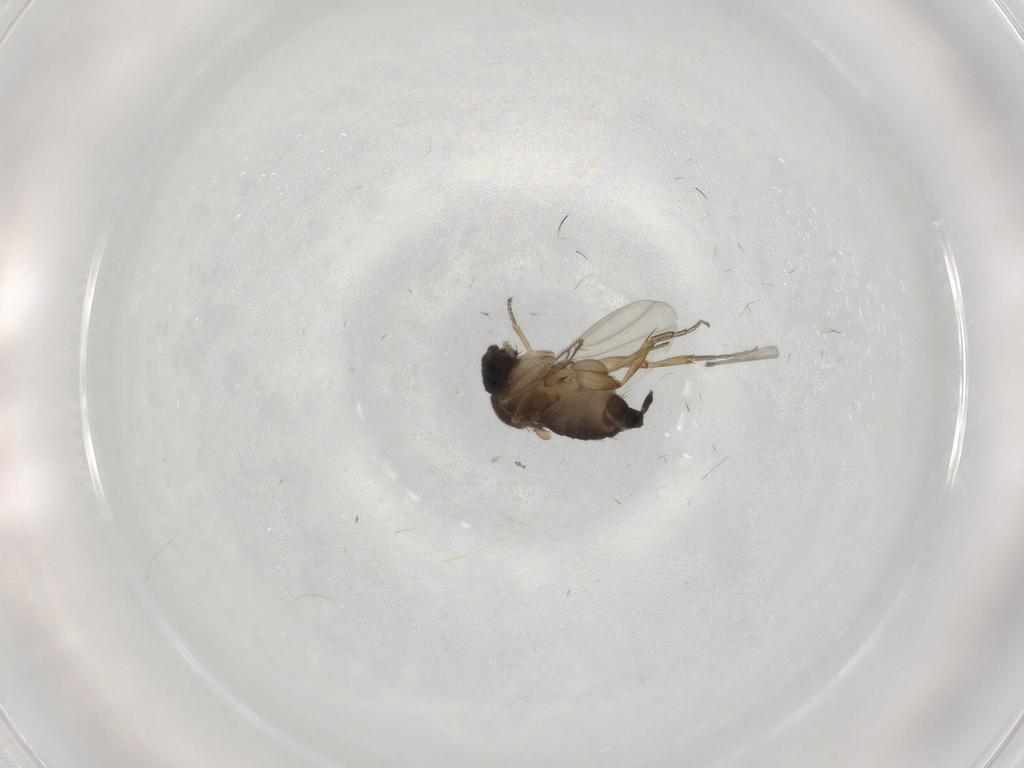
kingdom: Animalia
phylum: Arthropoda
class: Insecta
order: Diptera
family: Phoridae
